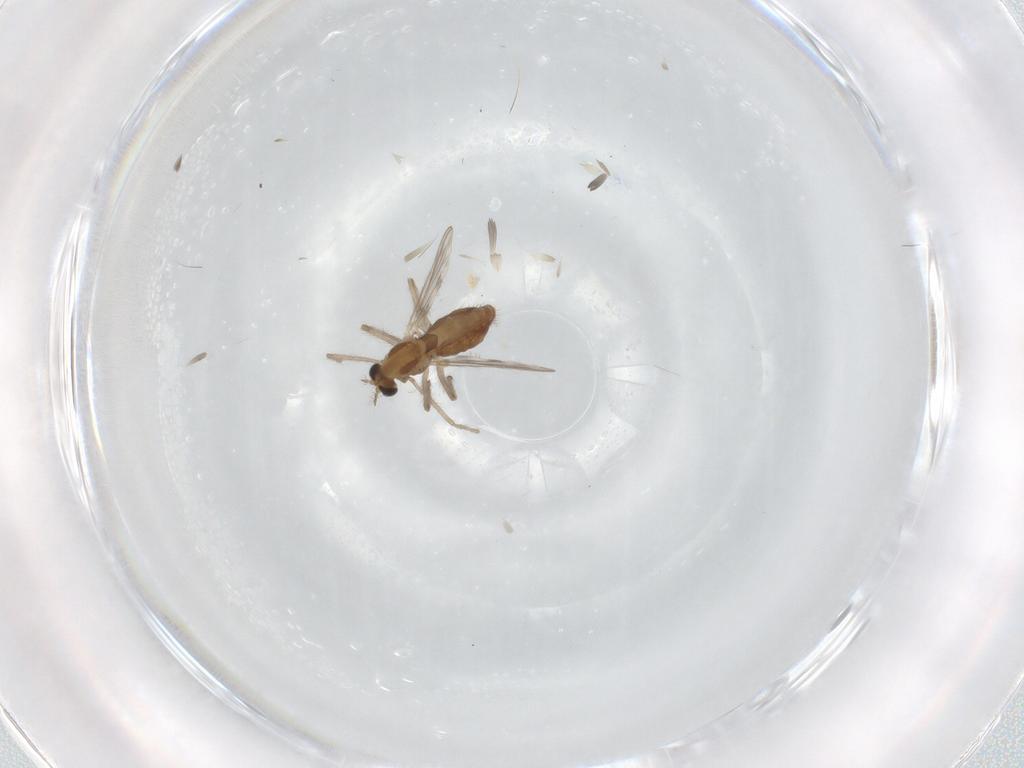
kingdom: Animalia
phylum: Arthropoda
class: Insecta
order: Diptera
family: Chironomidae
